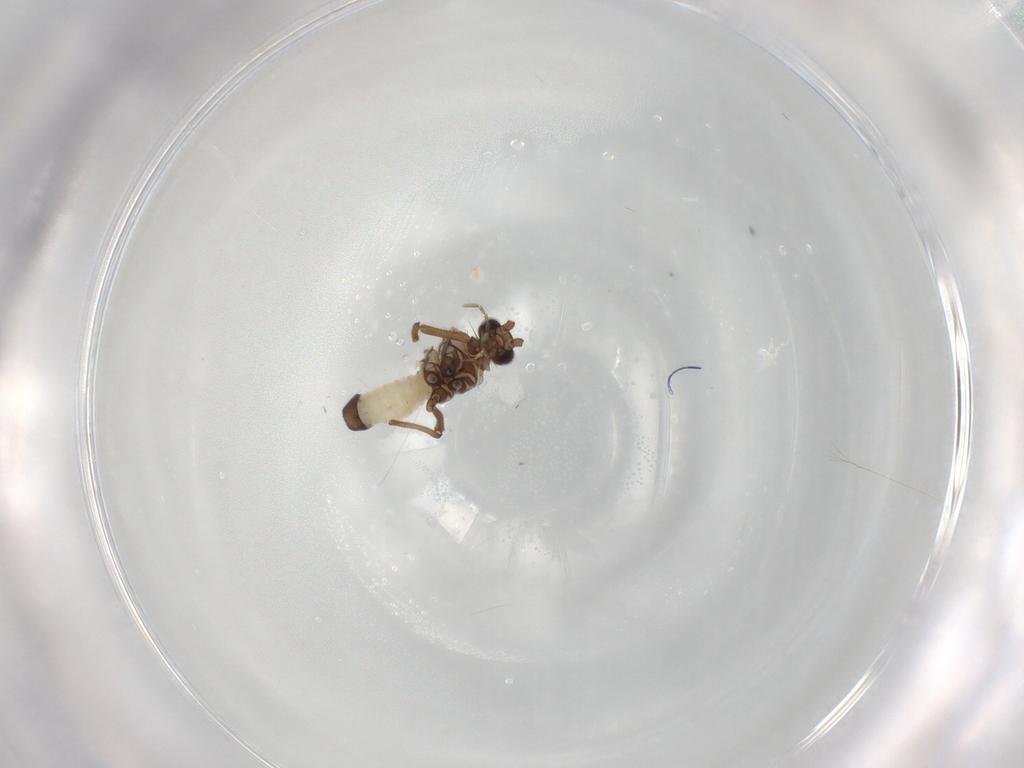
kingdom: Animalia
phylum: Arthropoda
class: Insecta
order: Neuroptera
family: Coniopterygidae
